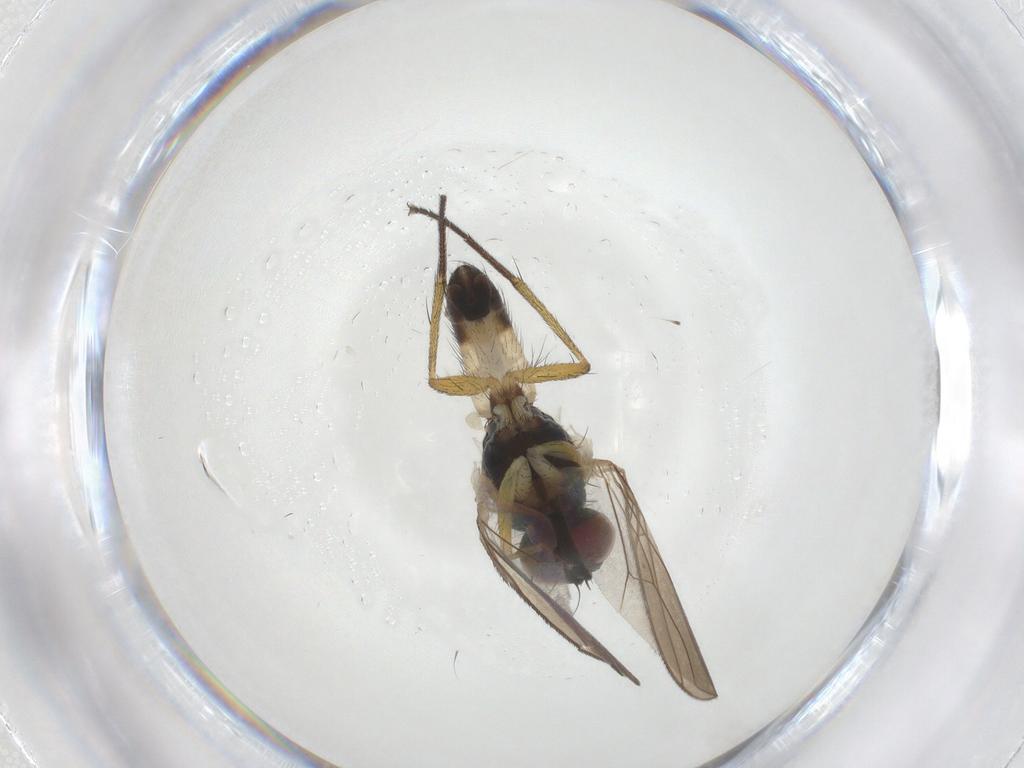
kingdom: Animalia
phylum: Arthropoda
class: Insecta
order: Diptera
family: Muscidae
